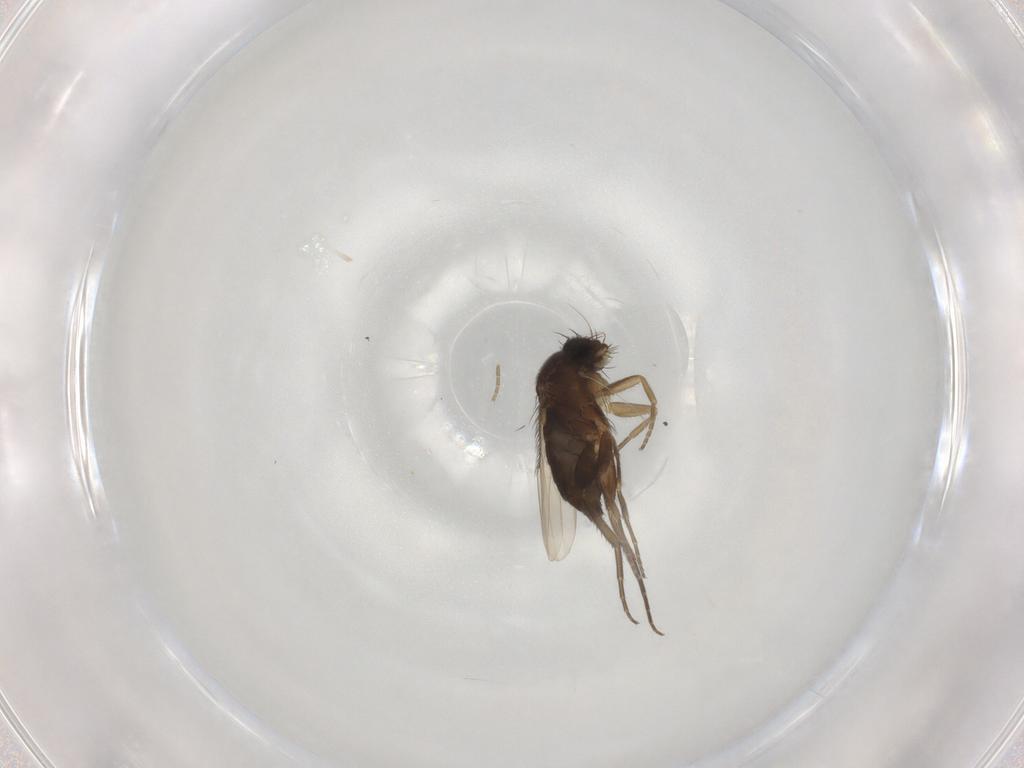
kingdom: Animalia
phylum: Arthropoda
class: Insecta
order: Diptera
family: Phoridae
